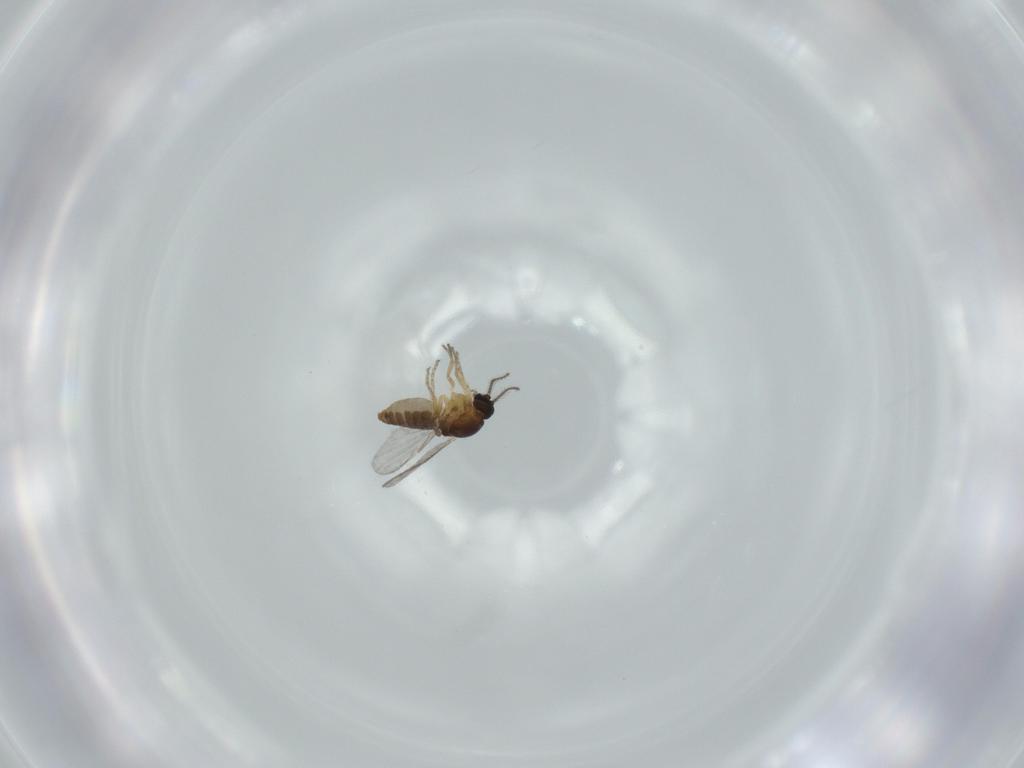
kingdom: Animalia
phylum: Arthropoda
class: Insecta
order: Diptera
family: Ceratopogonidae
